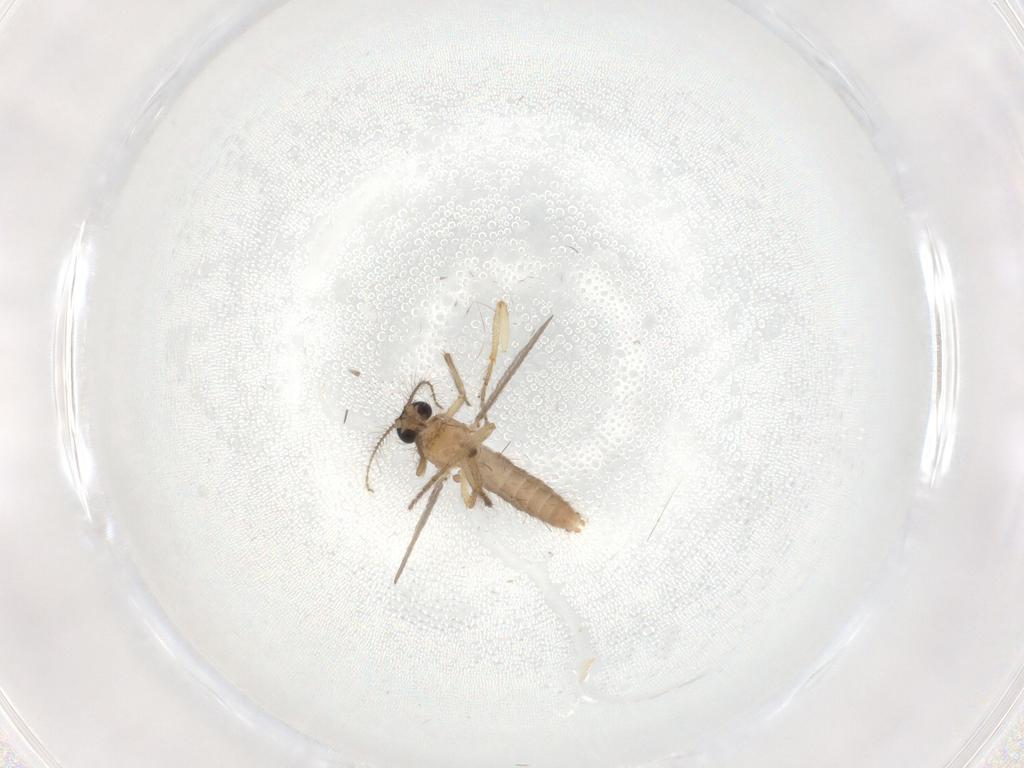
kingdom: Animalia
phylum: Arthropoda
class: Insecta
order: Diptera
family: Ceratopogonidae
